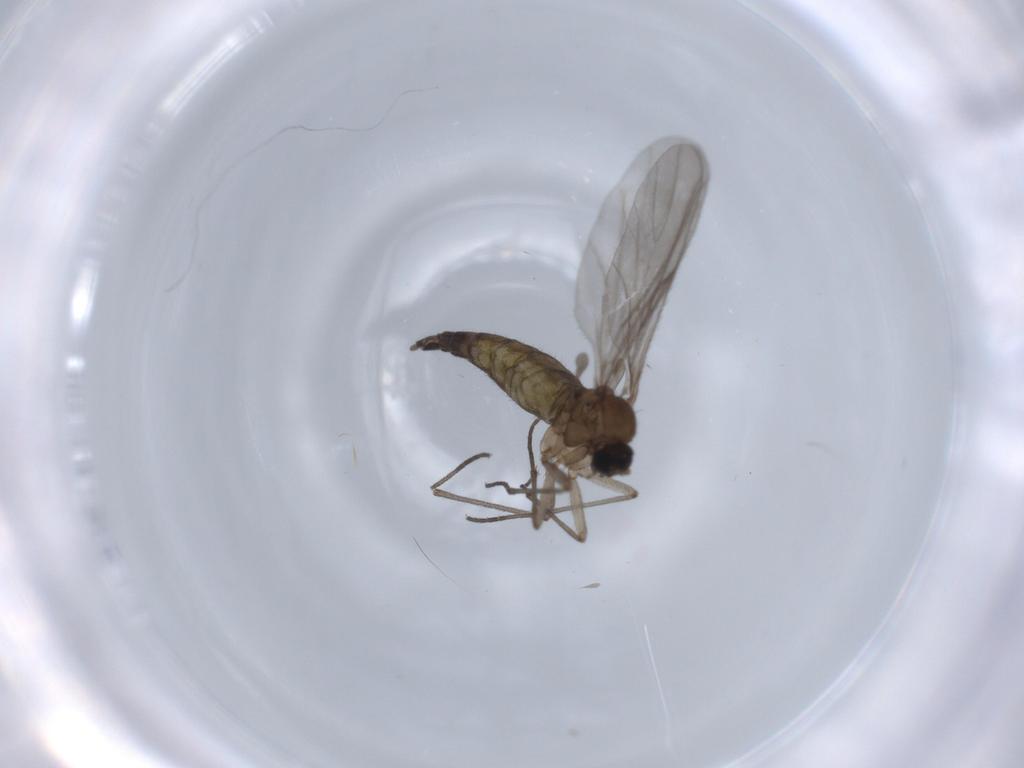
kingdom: Animalia
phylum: Arthropoda
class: Insecta
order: Diptera
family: Sciaridae
